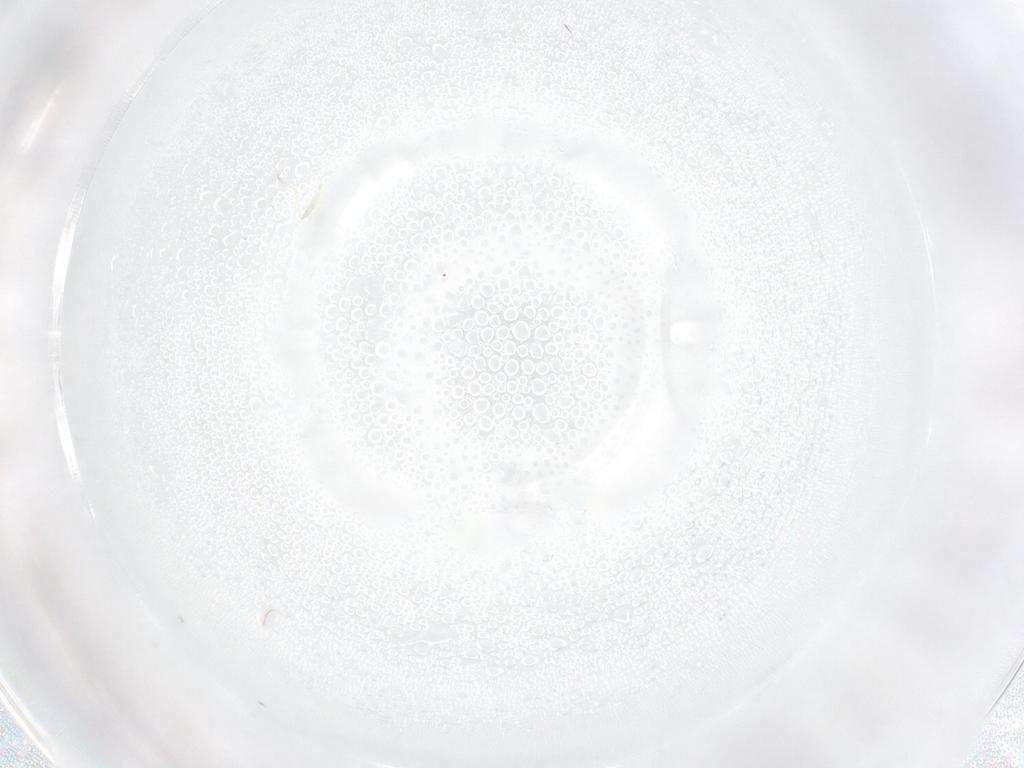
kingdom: Animalia
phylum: Arthropoda
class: Insecta
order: Diptera
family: Cecidomyiidae
